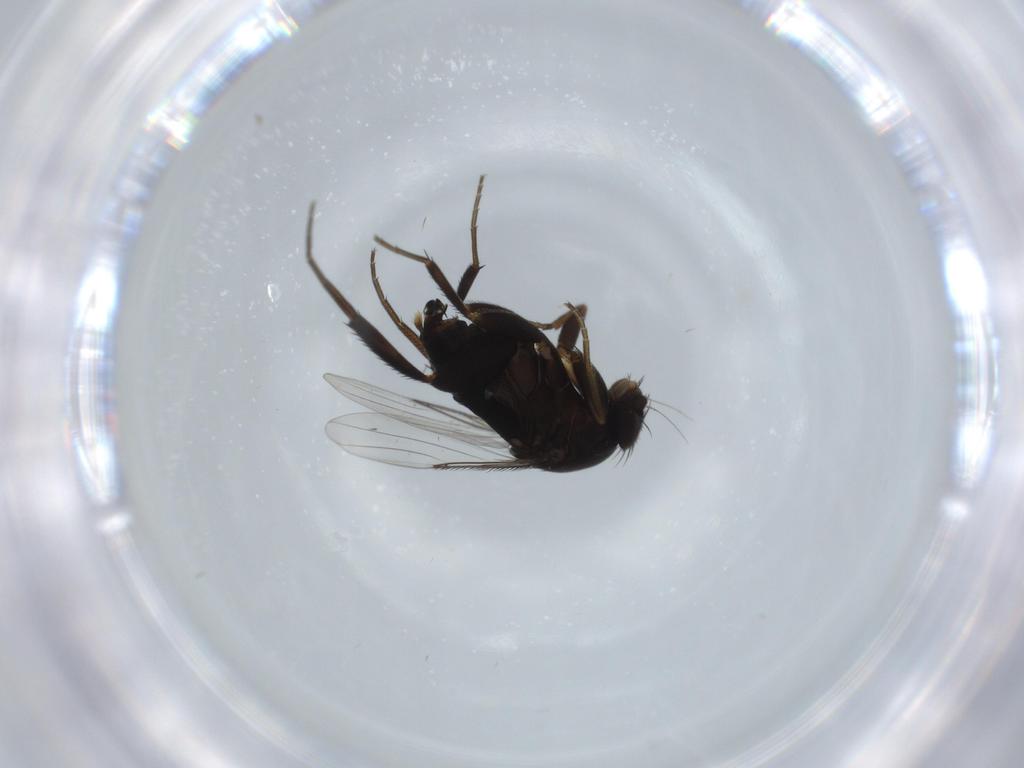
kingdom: Animalia
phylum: Arthropoda
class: Insecta
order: Diptera
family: Phoridae
